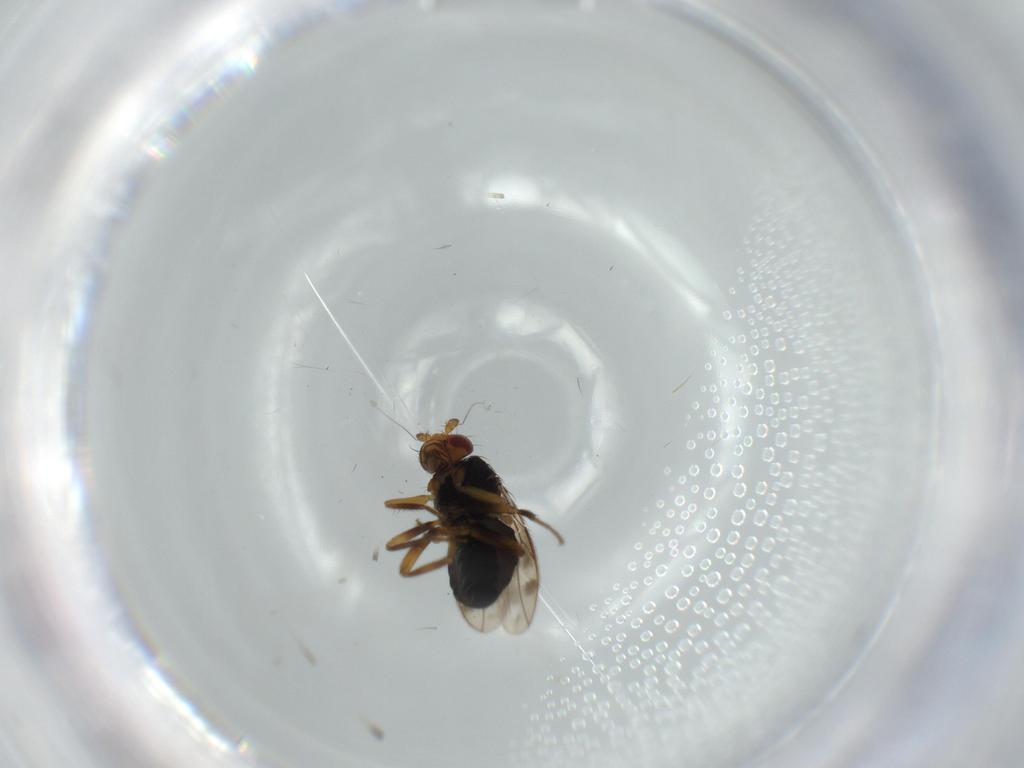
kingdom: Animalia
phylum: Arthropoda
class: Insecta
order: Diptera
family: Sphaeroceridae
